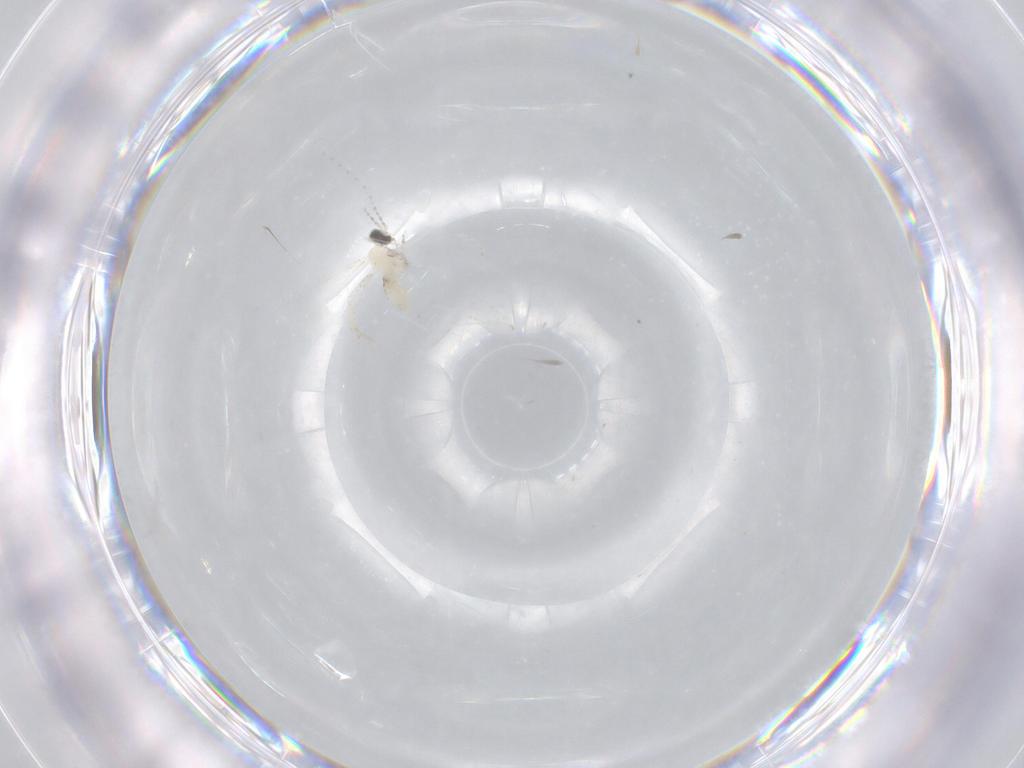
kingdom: Animalia
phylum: Arthropoda
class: Insecta
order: Diptera
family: Cecidomyiidae
